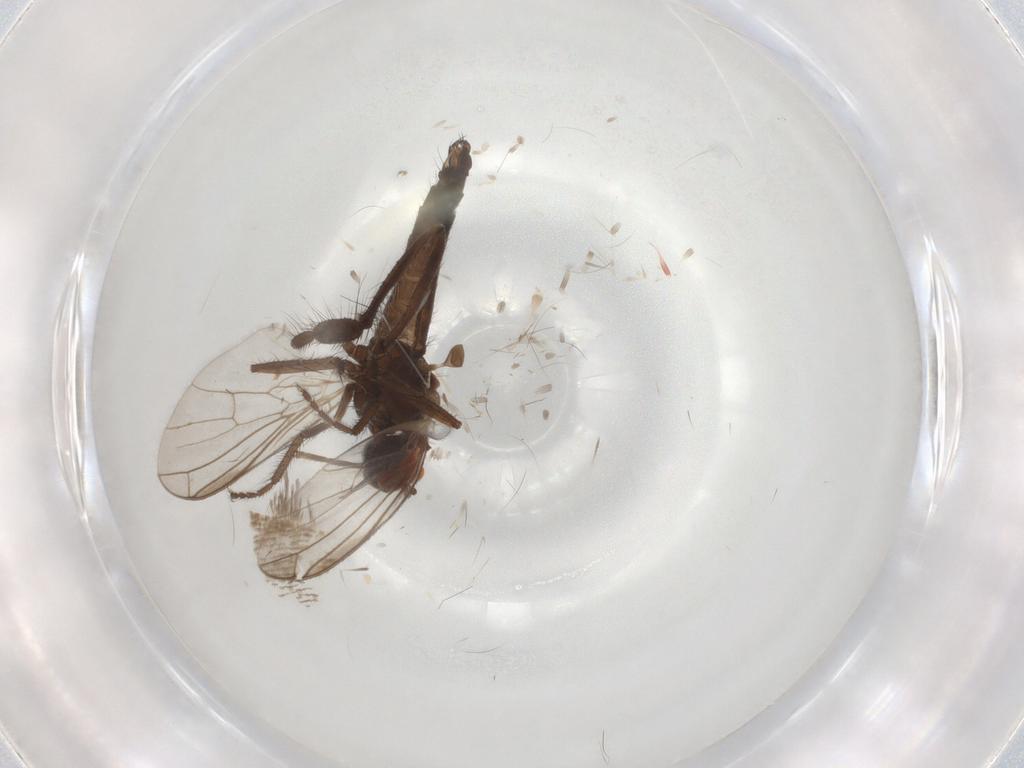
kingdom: Animalia
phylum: Arthropoda
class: Insecta
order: Diptera
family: Empididae
